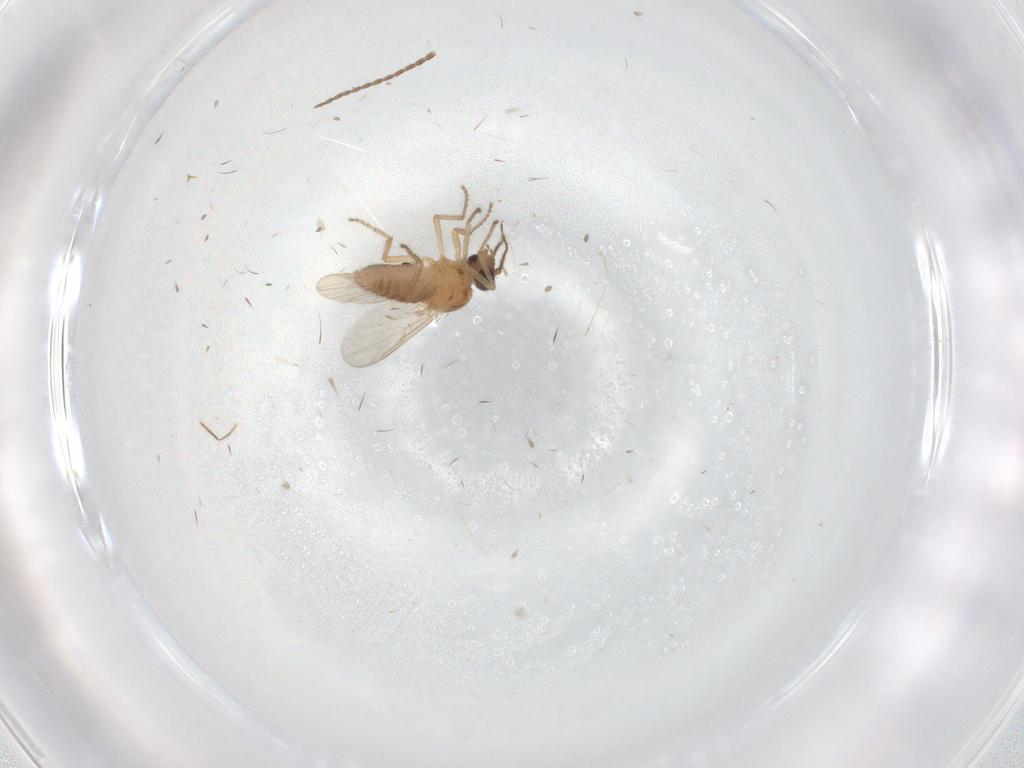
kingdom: Animalia
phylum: Arthropoda
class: Insecta
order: Diptera
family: Ceratopogonidae
